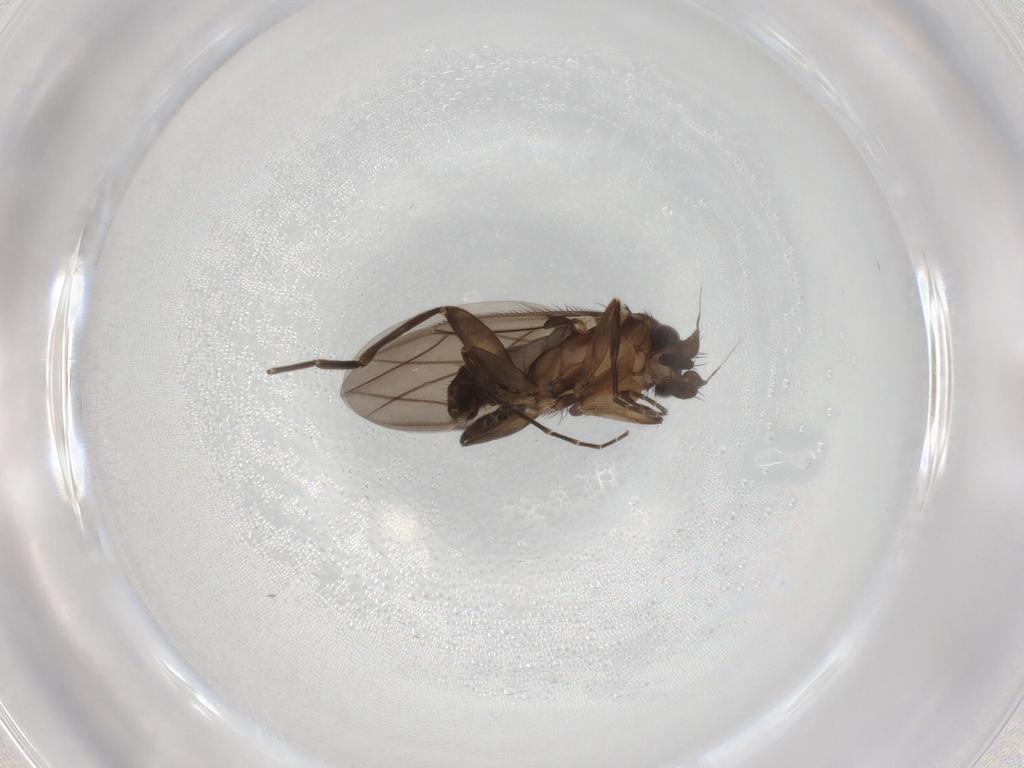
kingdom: Animalia
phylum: Arthropoda
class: Insecta
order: Diptera
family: Phoridae
